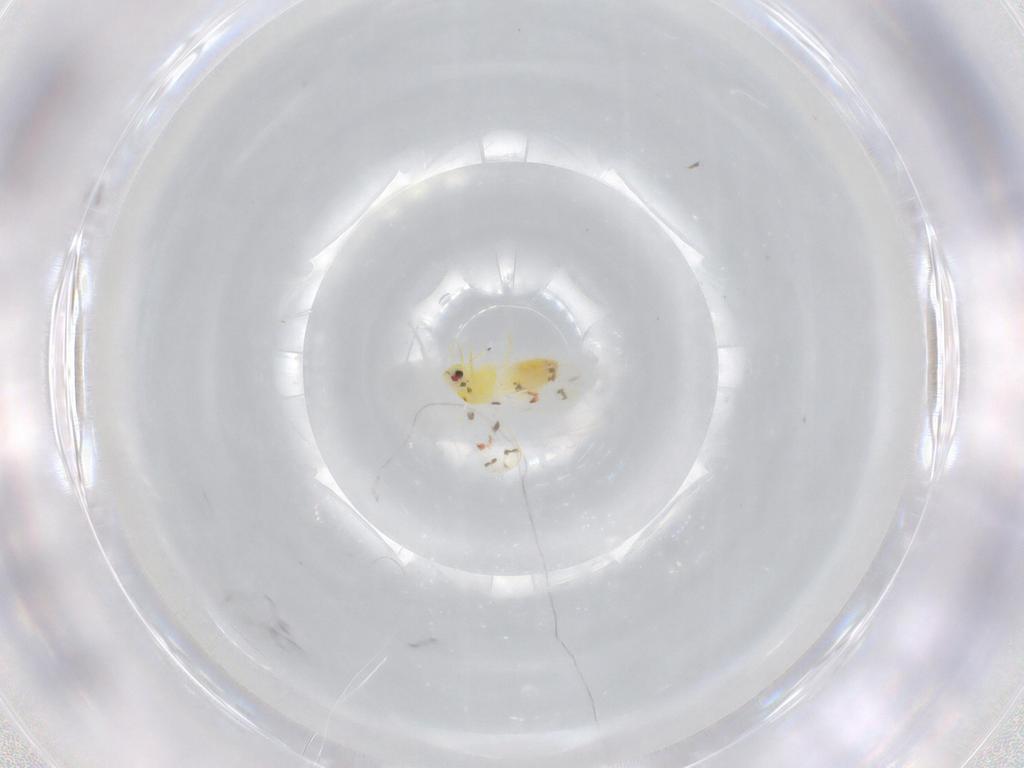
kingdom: Animalia
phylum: Arthropoda
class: Insecta
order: Hemiptera
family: Aleyrodidae
